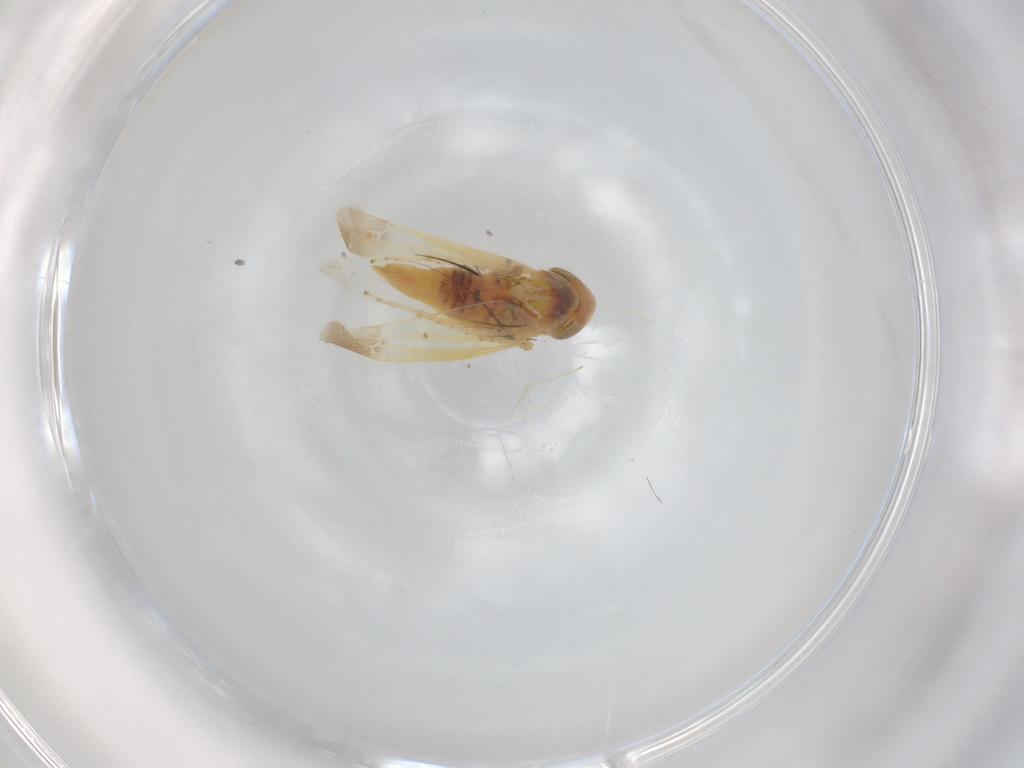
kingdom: Animalia
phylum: Arthropoda
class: Insecta
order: Hemiptera
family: Cicadellidae
